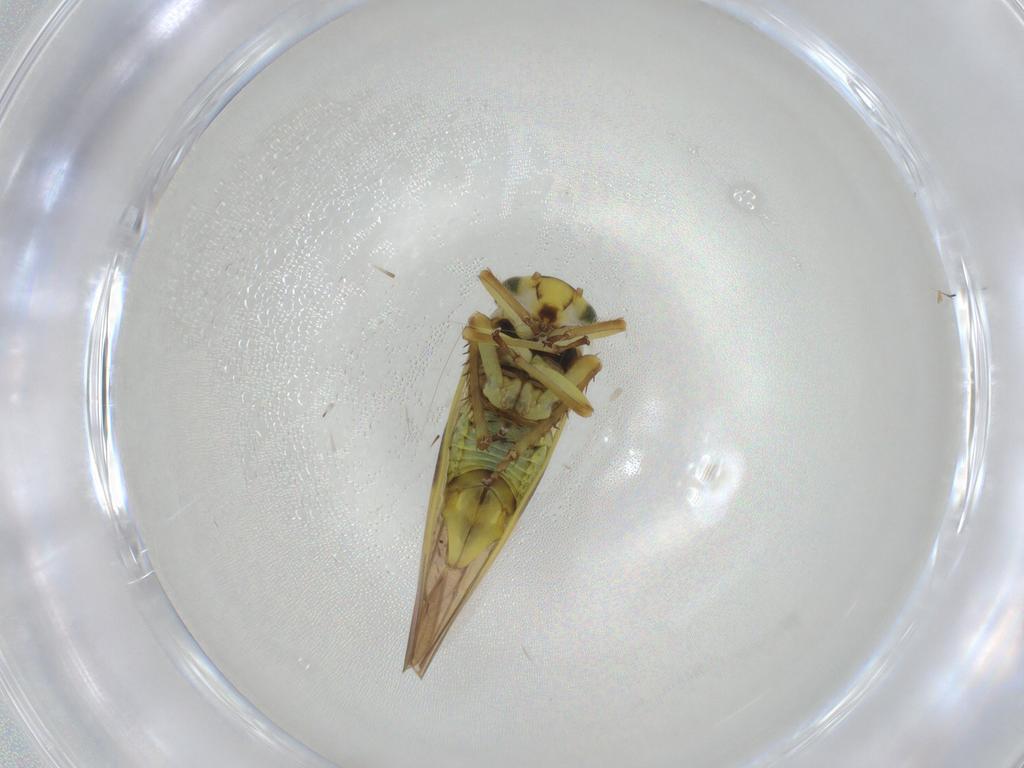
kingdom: Animalia
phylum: Arthropoda
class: Insecta
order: Hemiptera
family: Cicadellidae
